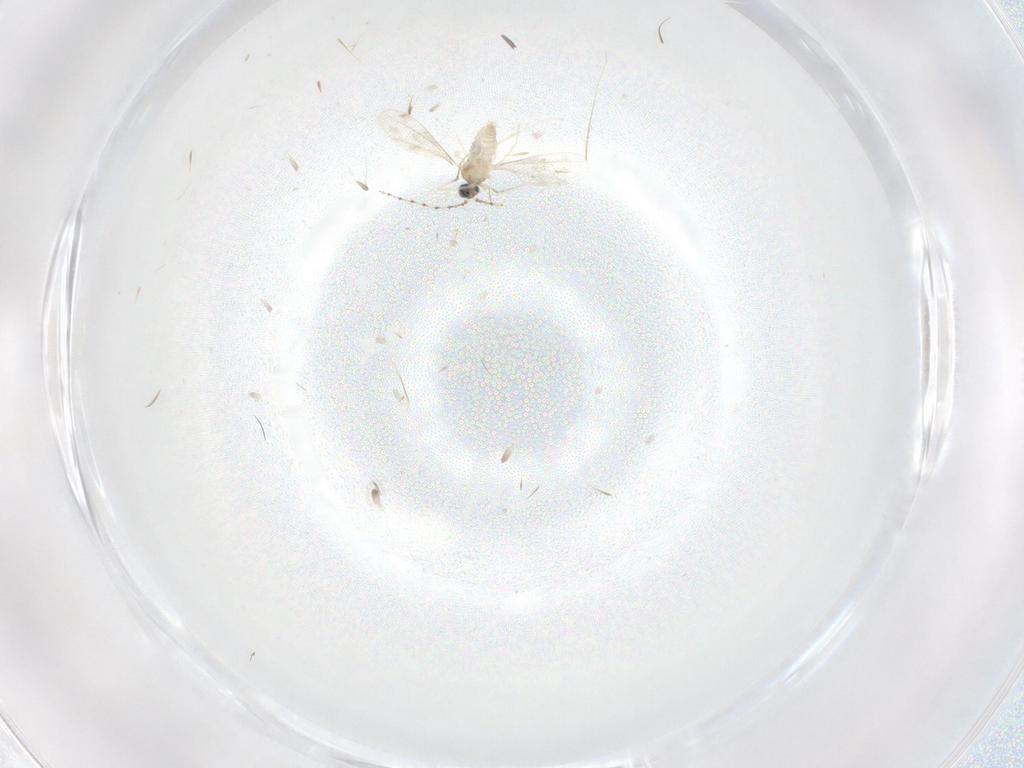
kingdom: Animalia
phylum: Arthropoda
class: Insecta
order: Diptera
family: Cecidomyiidae
